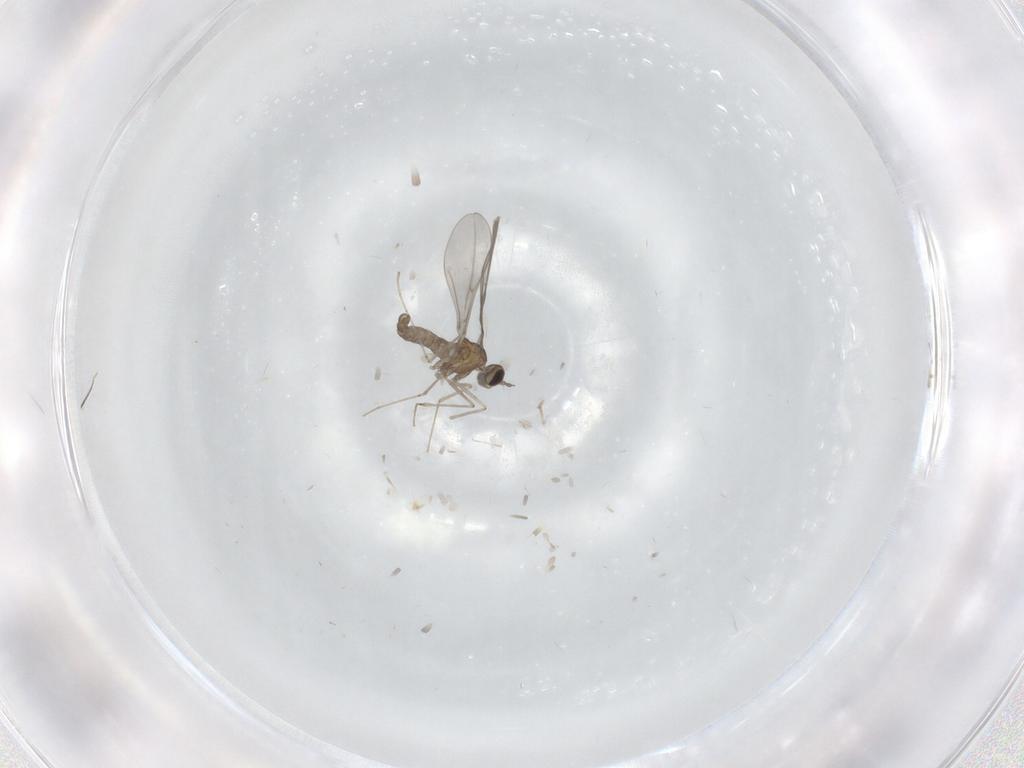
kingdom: Animalia
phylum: Arthropoda
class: Insecta
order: Diptera
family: Cecidomyiidae
